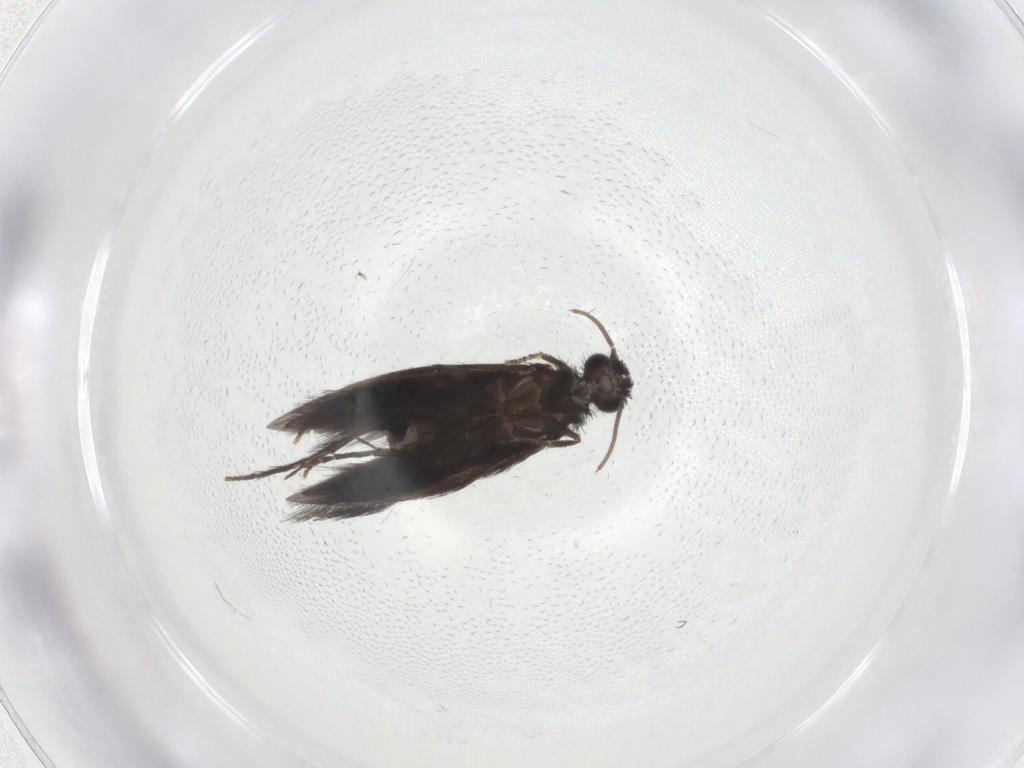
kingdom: Animalia
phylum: Arthropoda
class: Insecta
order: Trichoptera
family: Hydroptilidae
